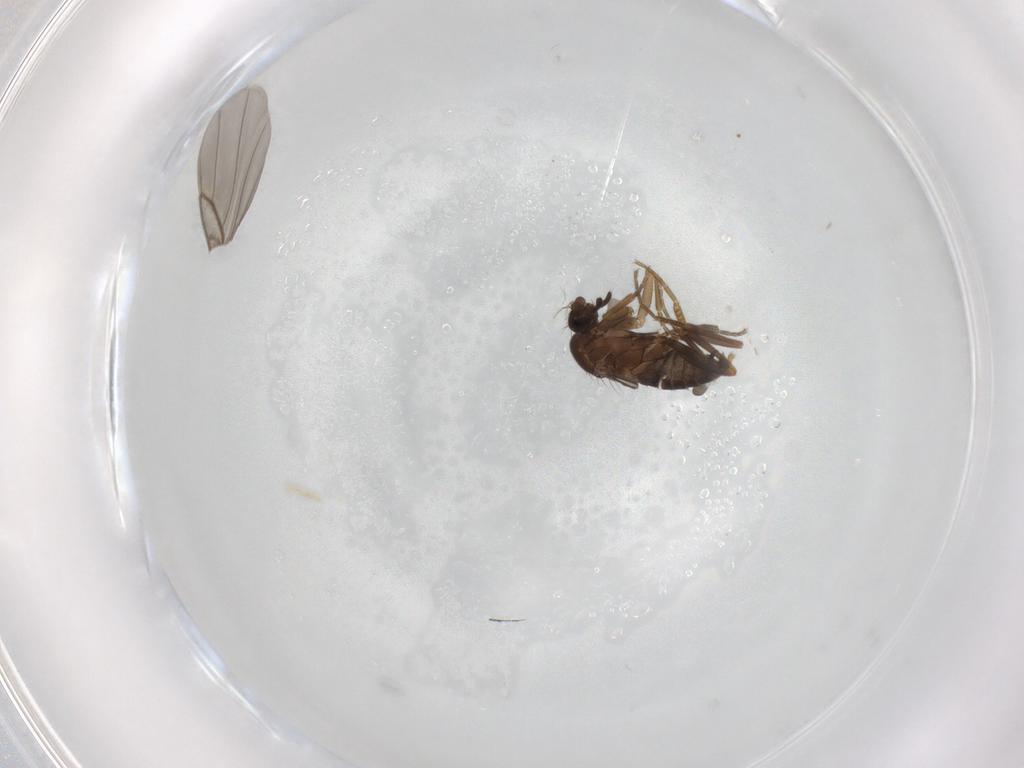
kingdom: Animalia
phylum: Arthropoda
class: Insecta
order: Diptera
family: Phoridae
